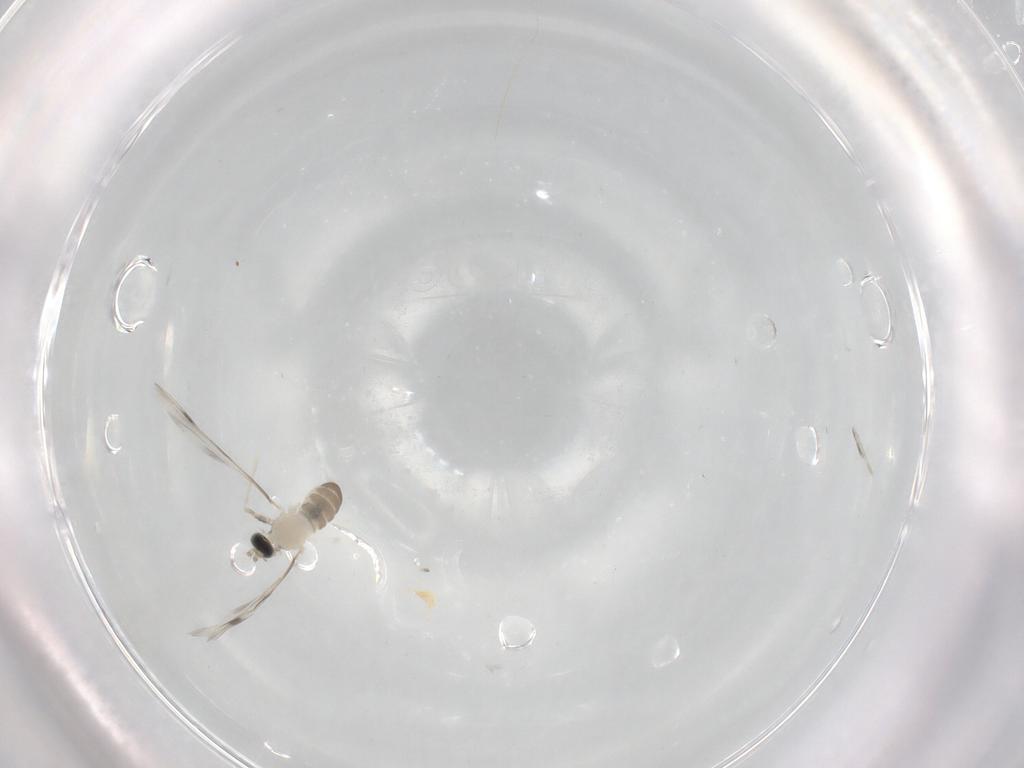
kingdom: Animalia
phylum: Arthropoda
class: Insecta
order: Diptera
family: Cecidomyiidae
